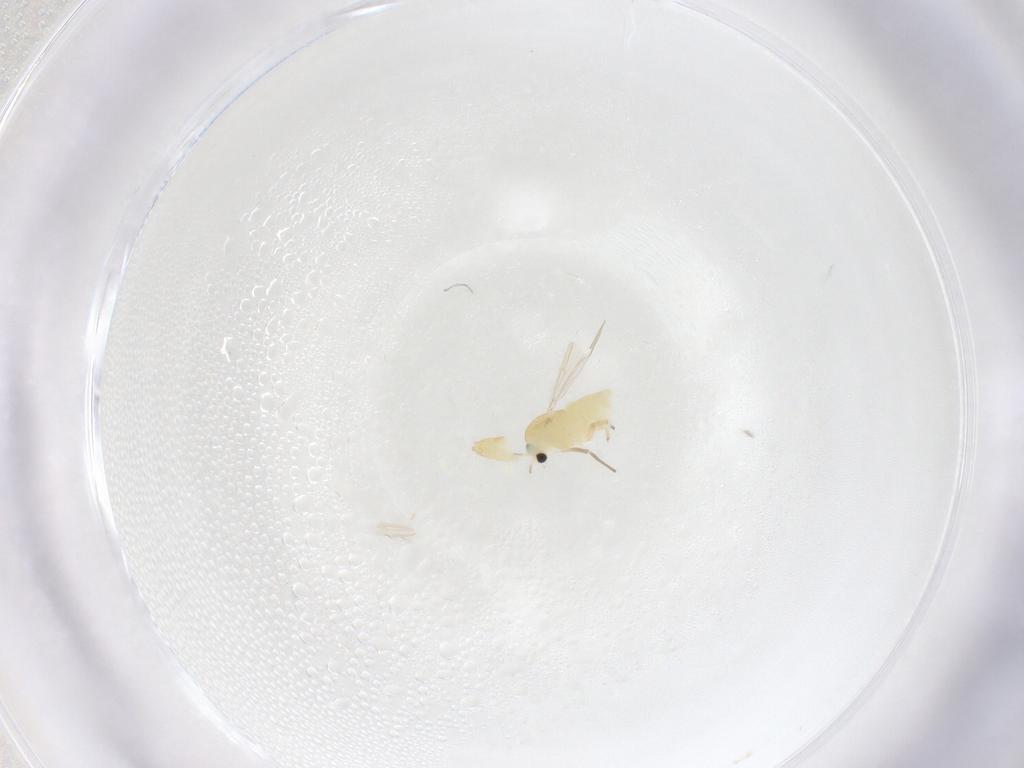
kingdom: Animalia
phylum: Arthropoda
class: Insecta
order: Diptera
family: Chironomidae
